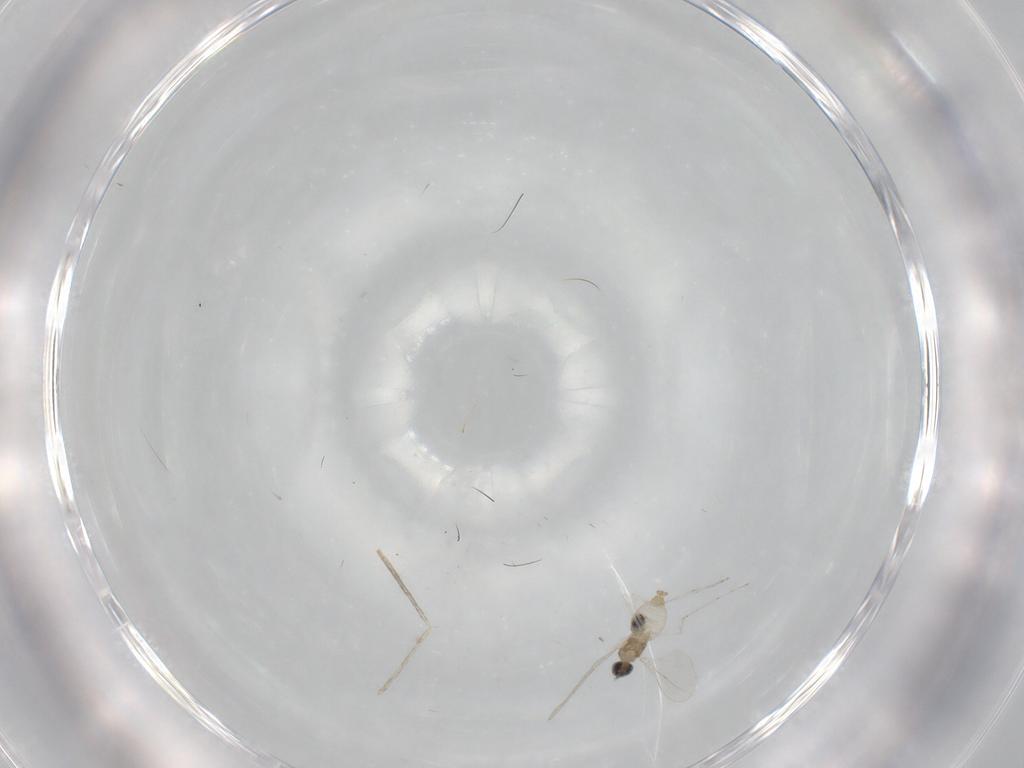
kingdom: Animalia
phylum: Arthropoda
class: Insecta
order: Diptera
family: Cecidomyiidae
